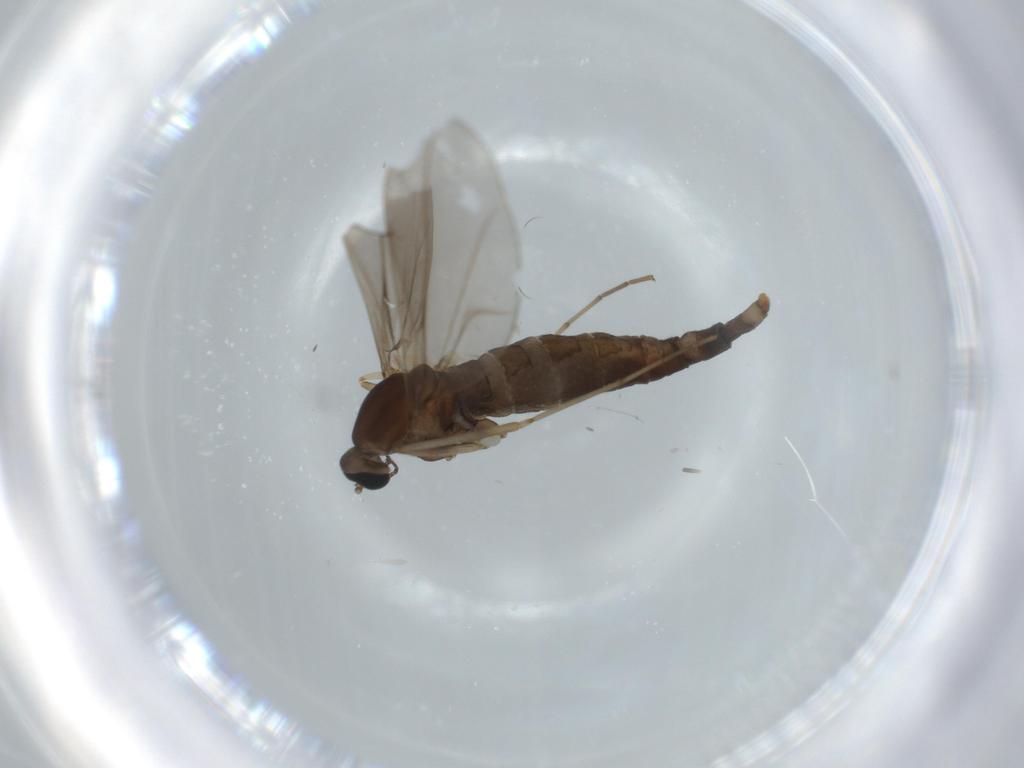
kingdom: Animalia
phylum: Arthropoda
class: Insecta
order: Diptera
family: Cecidomyiidae
